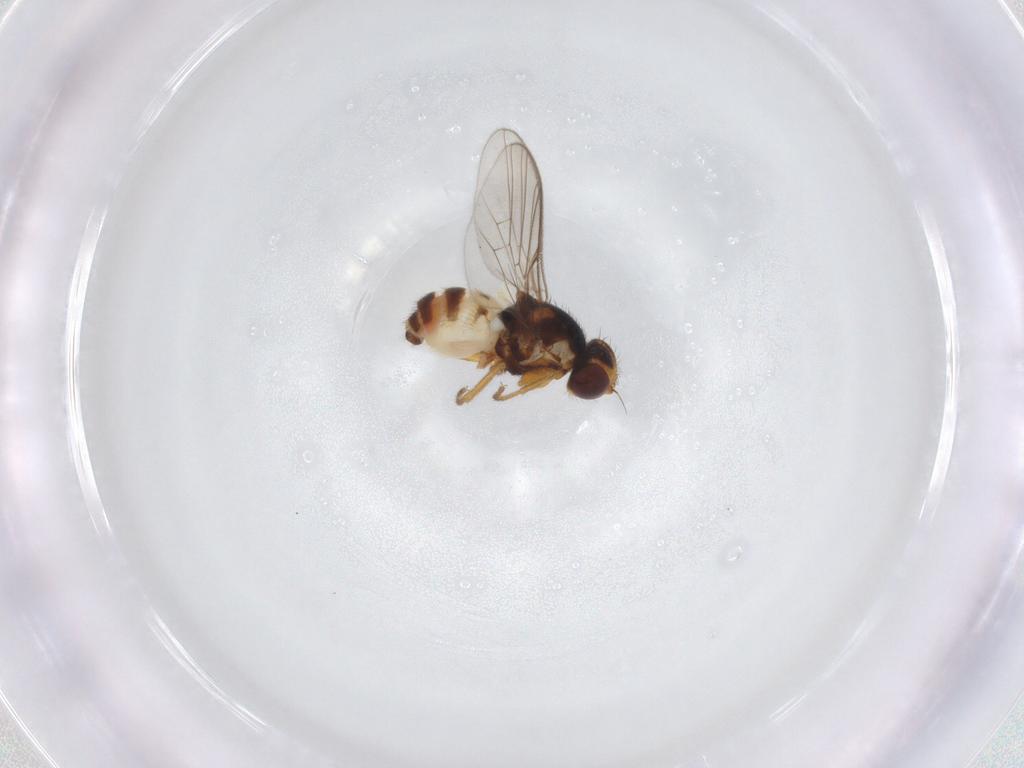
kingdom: Animalia
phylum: Arthropoda
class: Insecta
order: Diptera
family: Chloropidae
